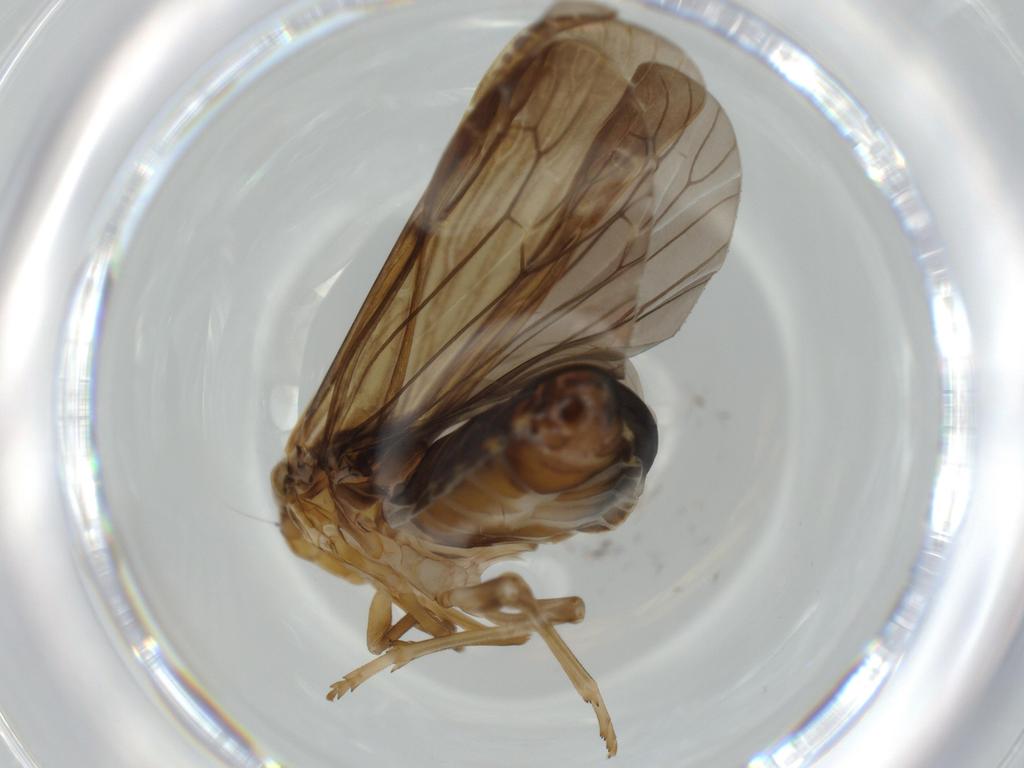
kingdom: Animalia
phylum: Arthropoda
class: Insecta
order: Hemiptera
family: Achilidae
